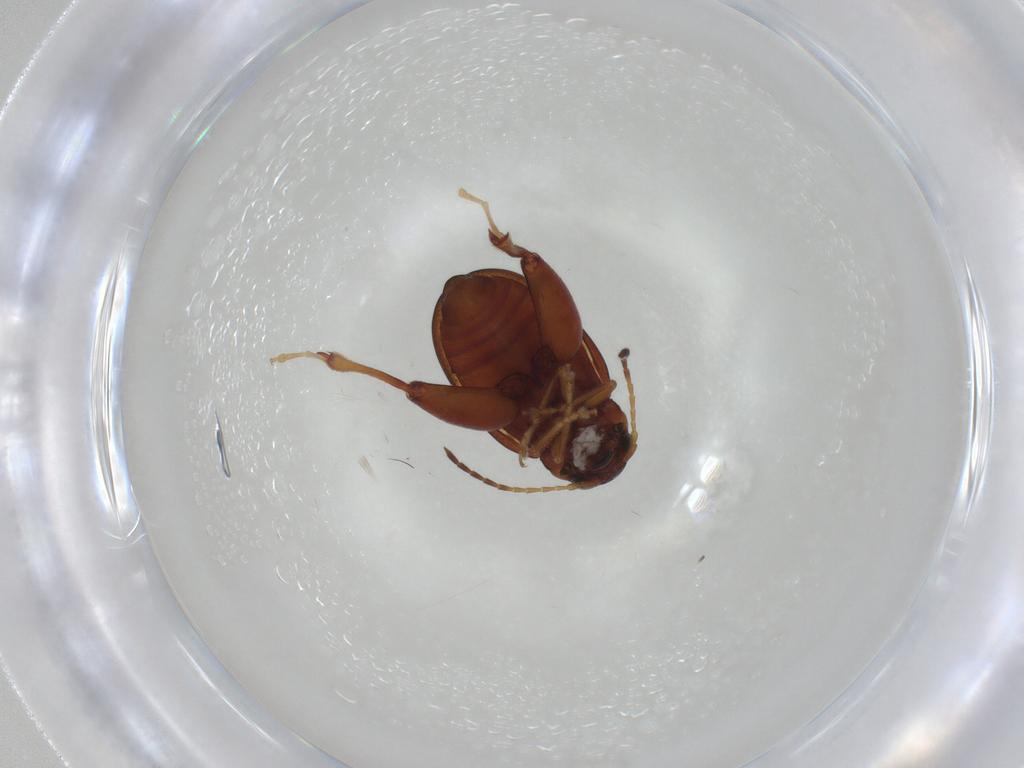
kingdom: Animalia
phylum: Arthropoda
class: Insecta
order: Coleoptera
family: Chrysomelidae
